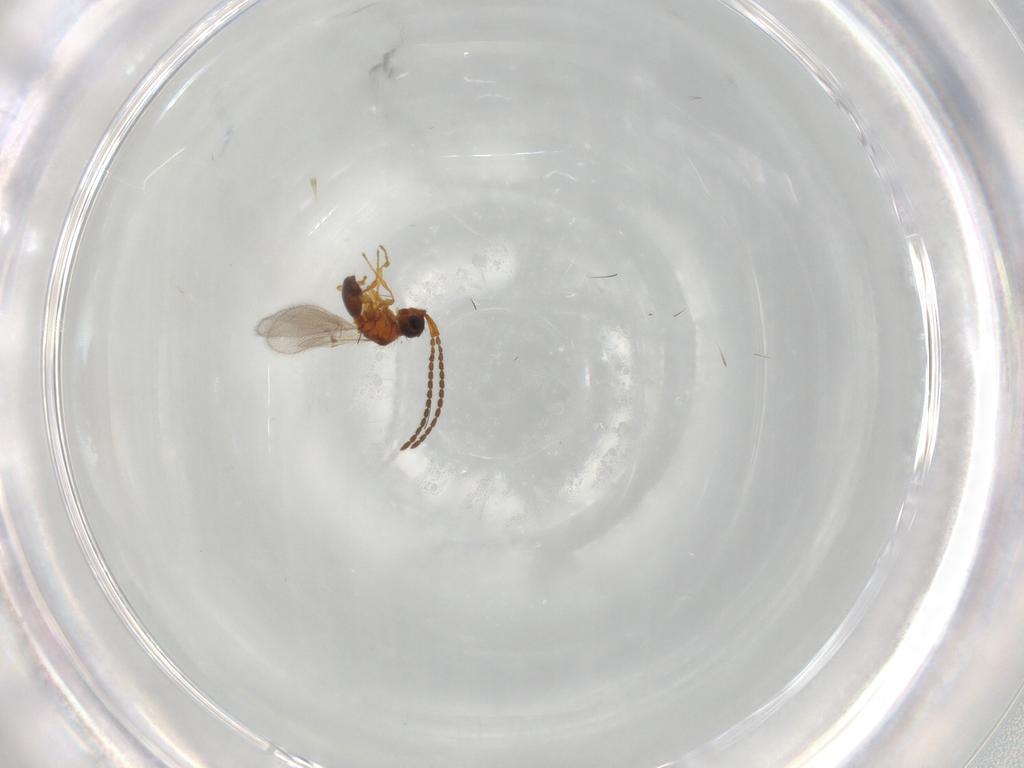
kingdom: Animalia
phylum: Arthropoda
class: Insecta
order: Hymenoptera
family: Diapriidae
